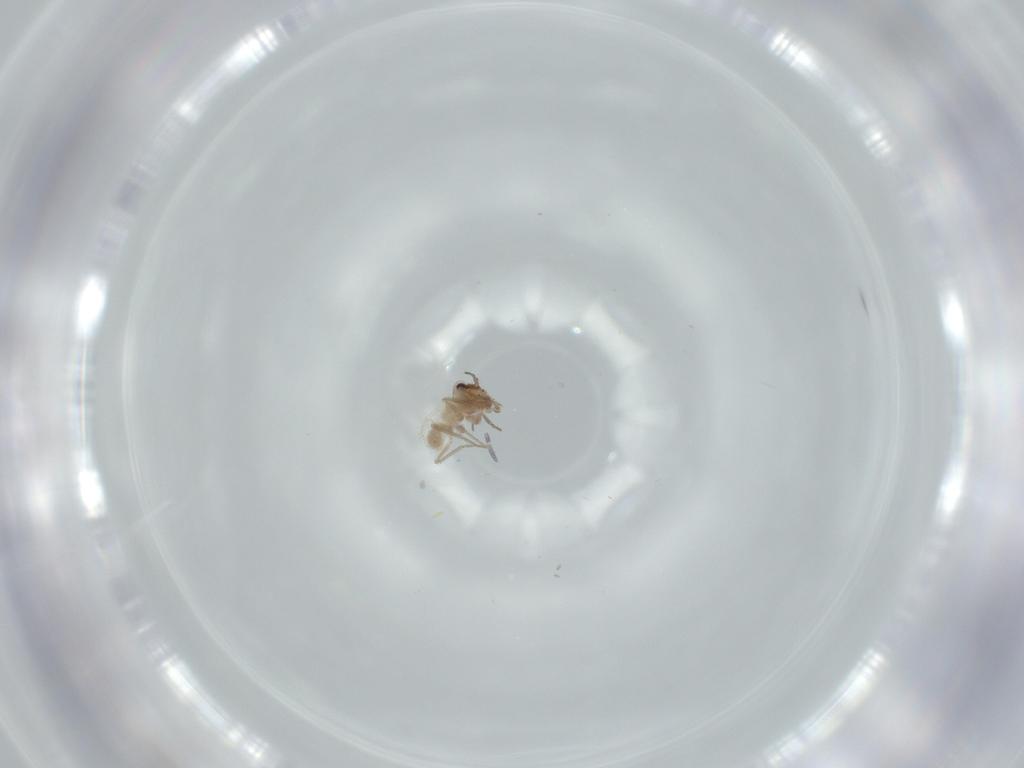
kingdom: Animalia
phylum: Arthropoda
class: Insecta
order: Psocodea
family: Lepidopsocidae
